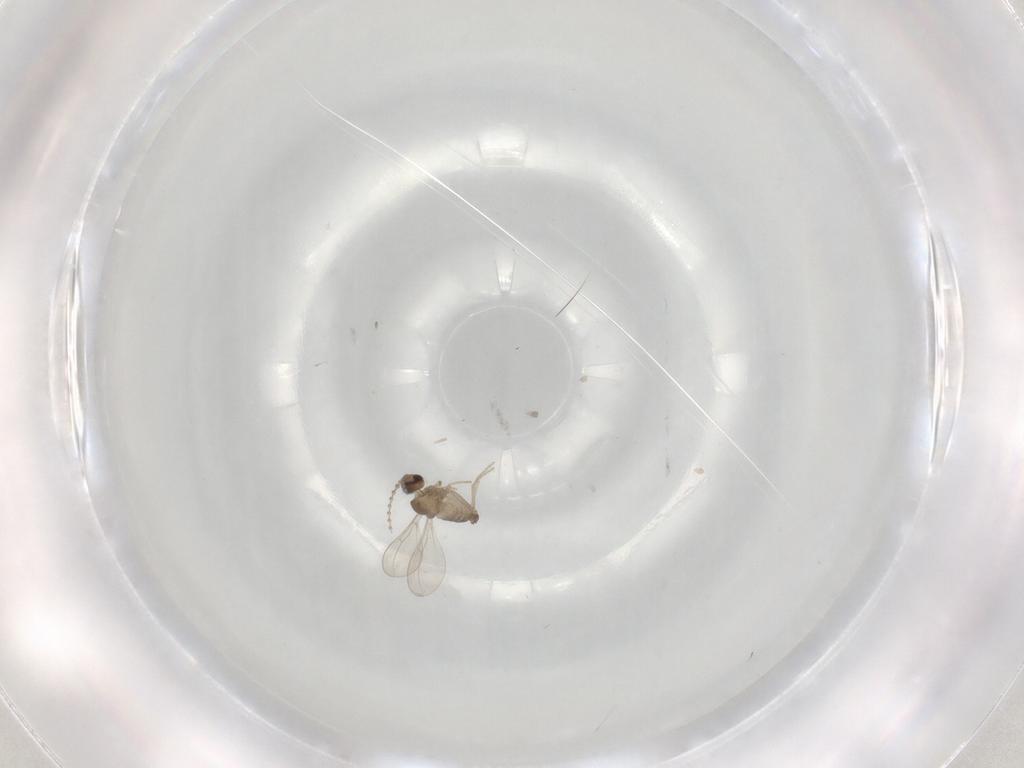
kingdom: Animalia
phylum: Arthropoda
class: Insecta
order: Diptera
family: Cecidomyiidae
